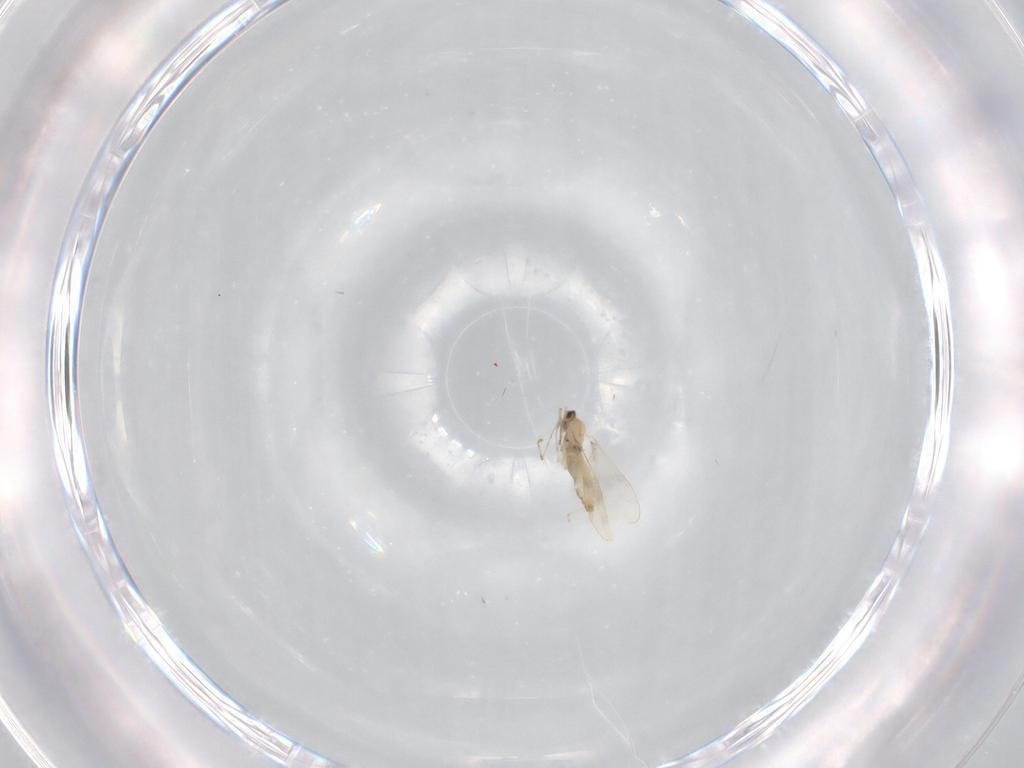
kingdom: Animalia
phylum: Arthropoda
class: Insecta
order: Diptera
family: Cecidomyiidae
